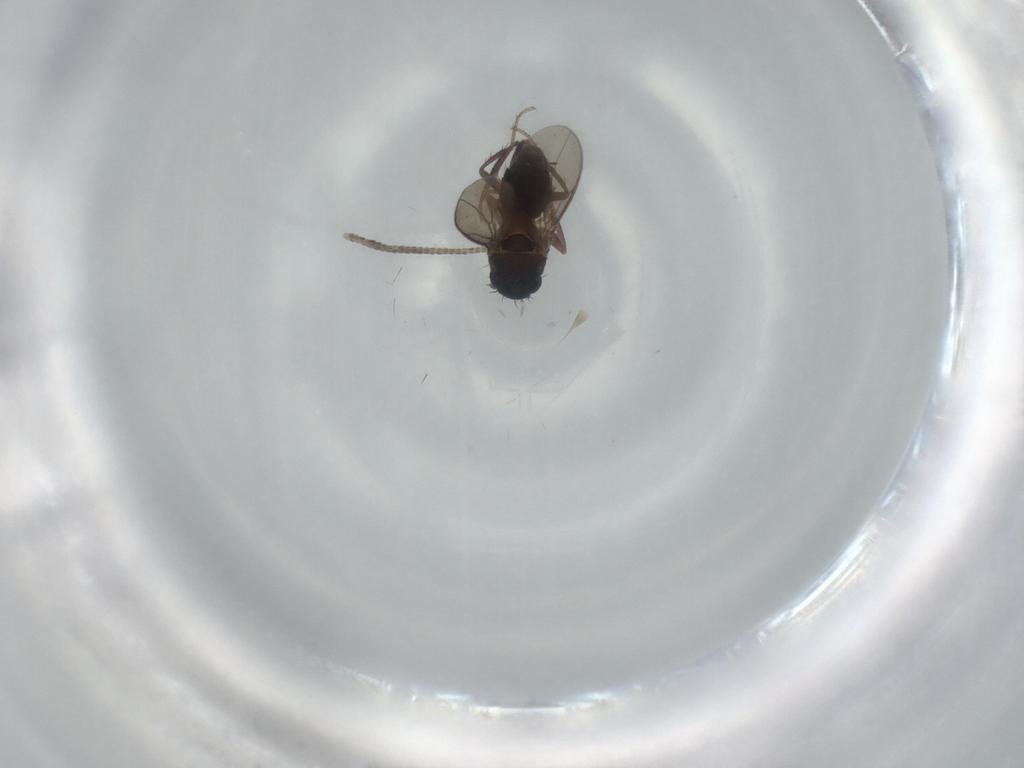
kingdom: Animalia
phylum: Arthropoda
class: Insecta
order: Diptera
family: Sphaeroceridae
